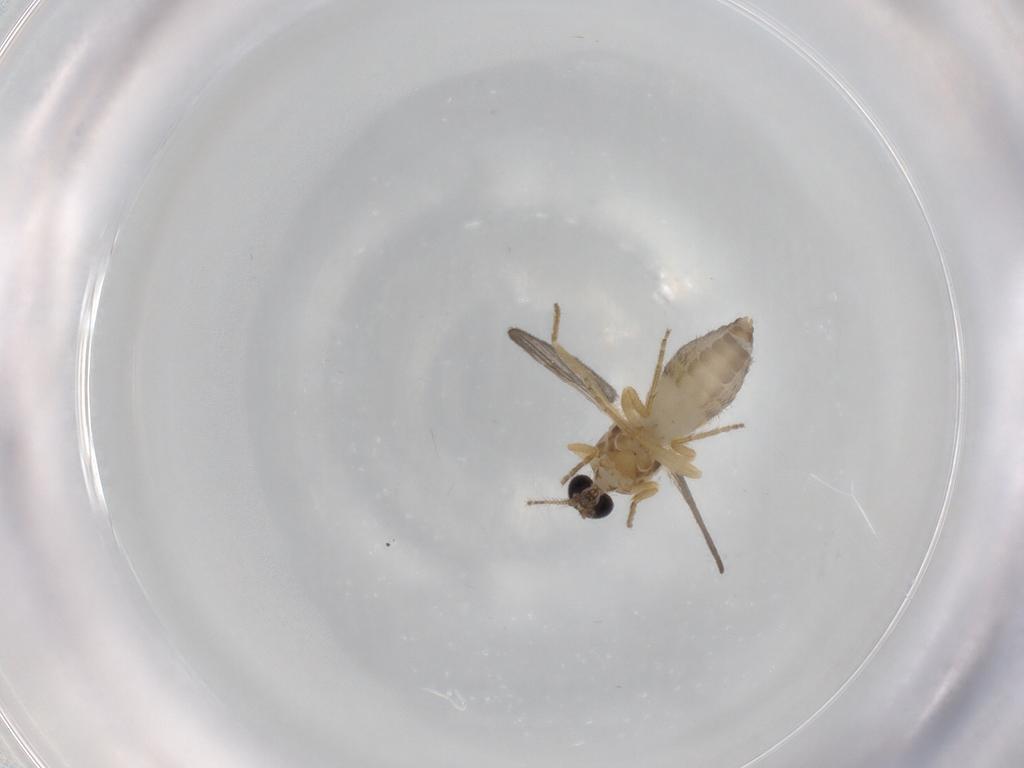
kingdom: Animalia
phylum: Arthropoda
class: Insecta
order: Diptera
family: Ceratopogonidae
